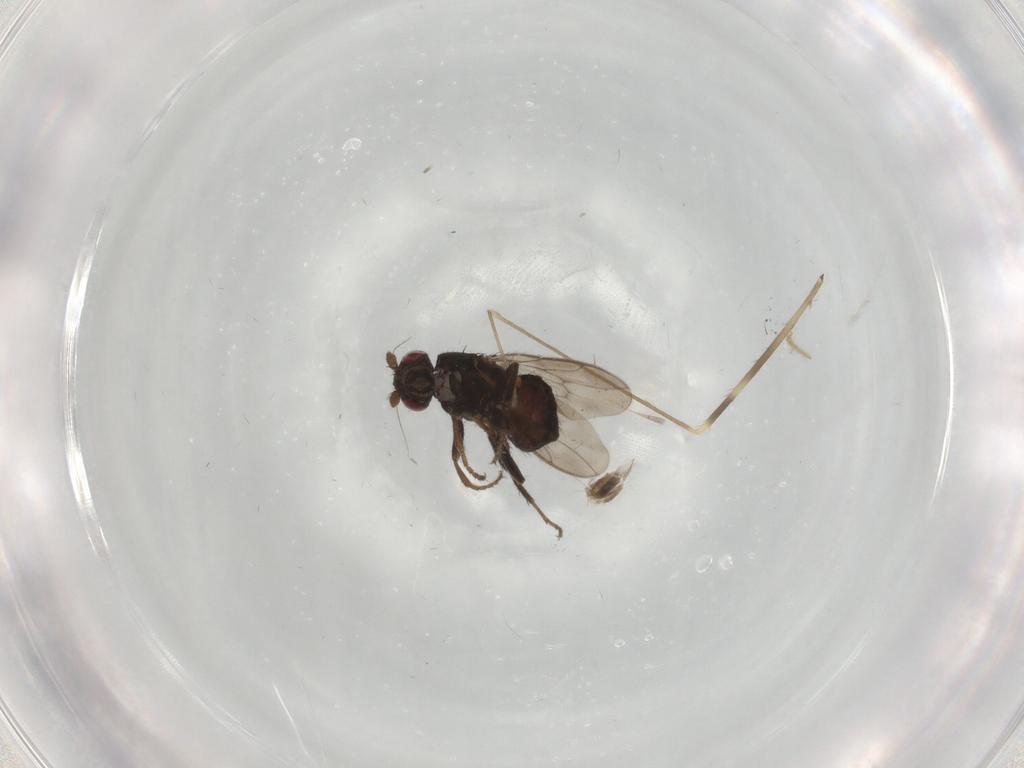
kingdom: Animalia
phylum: Arthropoda
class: Insecta
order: Diptera
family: Sphaeroceridae
